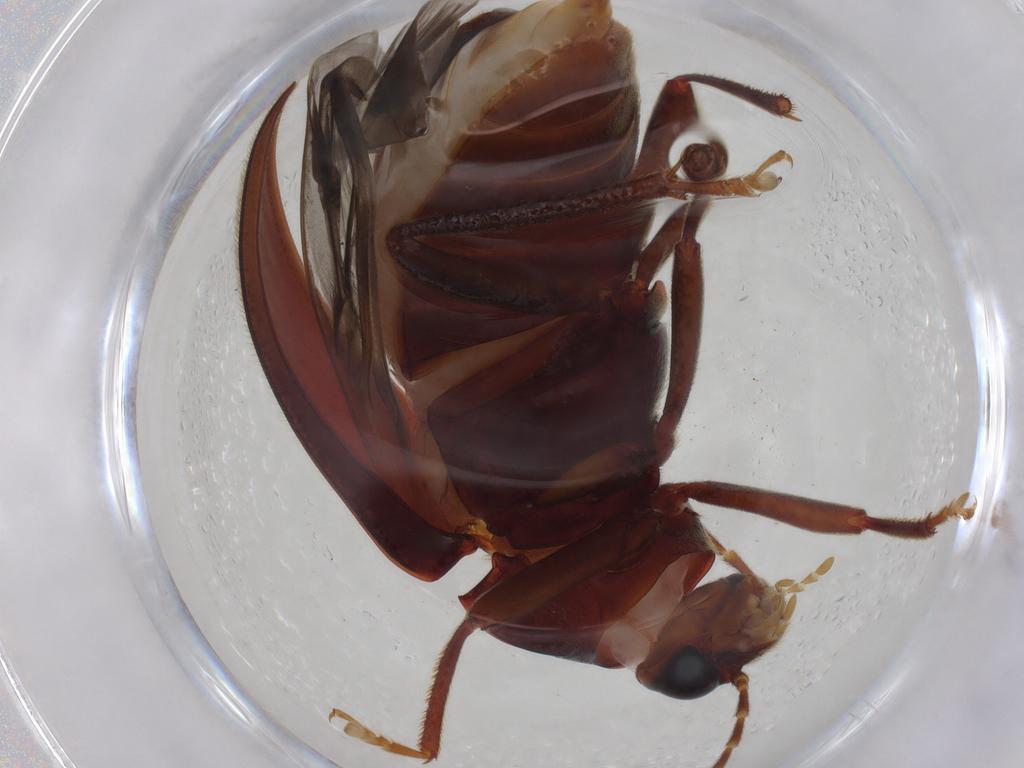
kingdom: Animalia
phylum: Arthropoda
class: Insecta
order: Coleoptera
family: Ptilodactylidae
